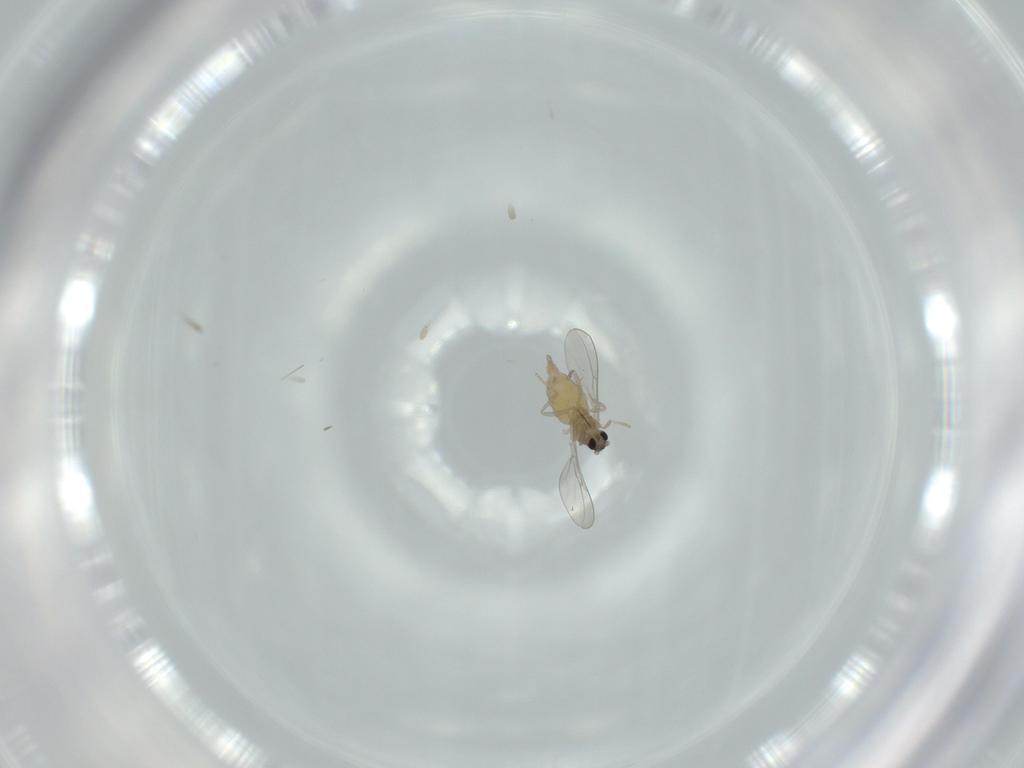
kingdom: Animalia
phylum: Arthropoda
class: Insecta
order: Diptera
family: Cecidomyiidae
